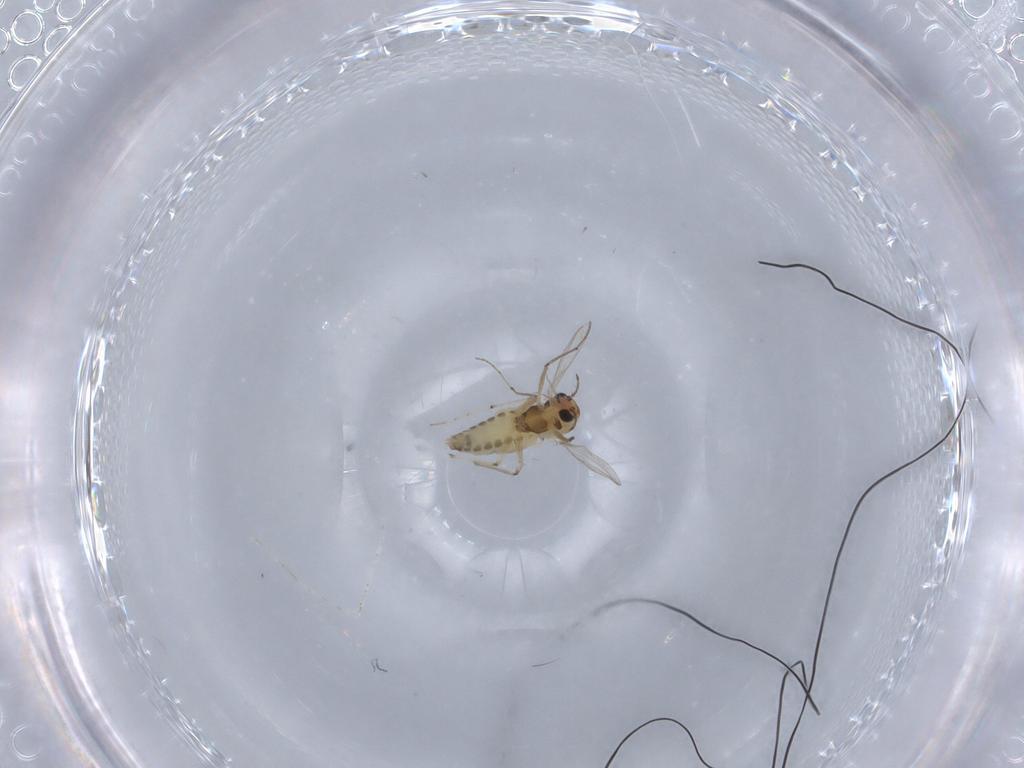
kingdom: Animalia
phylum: Arthropoda
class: Insecta
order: Diptera
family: Chironomidae
